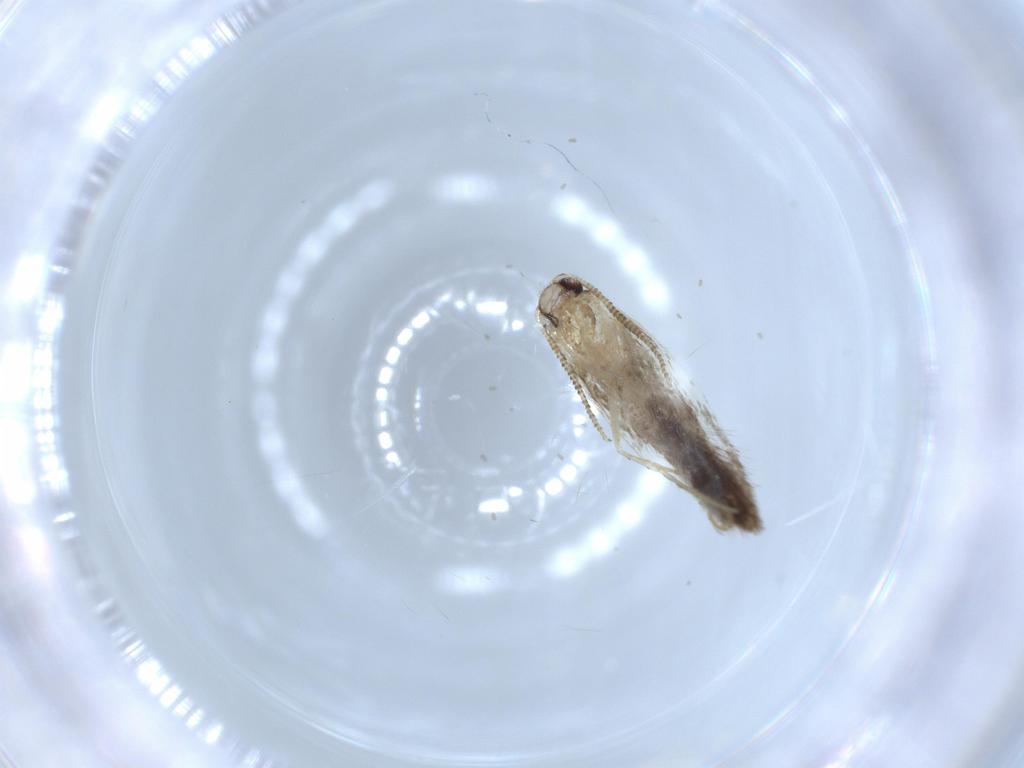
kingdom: Animalia
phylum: Arthropoda
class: Insecta
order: Lepidoptera
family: Tineidae
